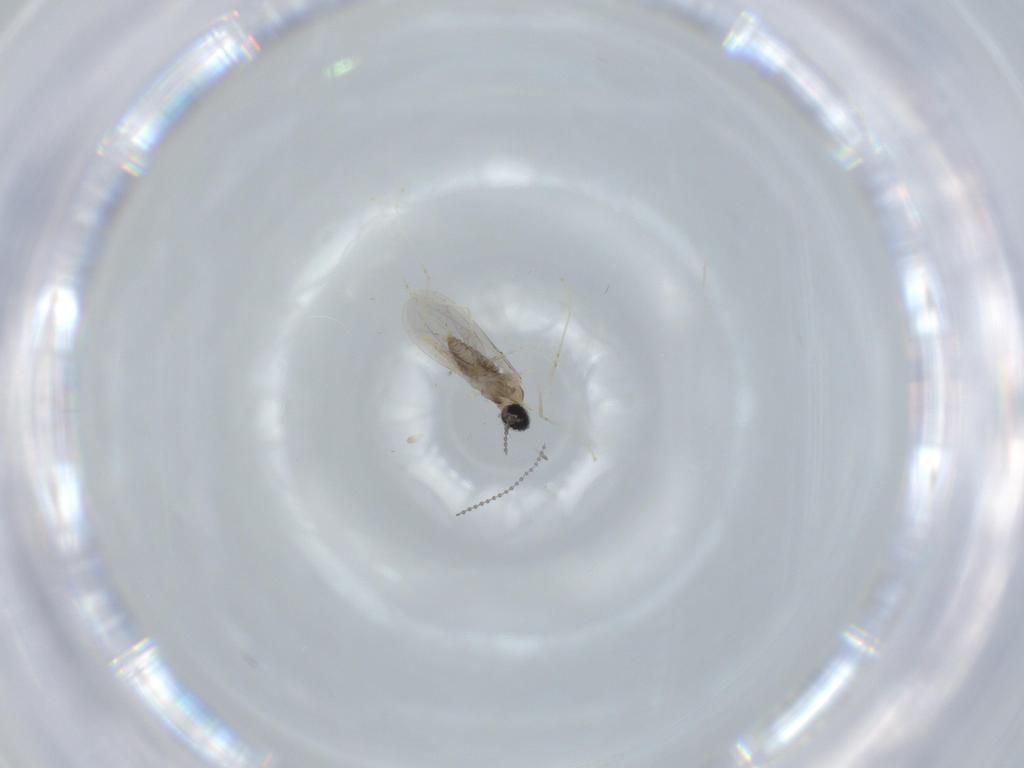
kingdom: Animalia
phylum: Arthropoda
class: Insecta
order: Diptera
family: Cecidomyiidae
